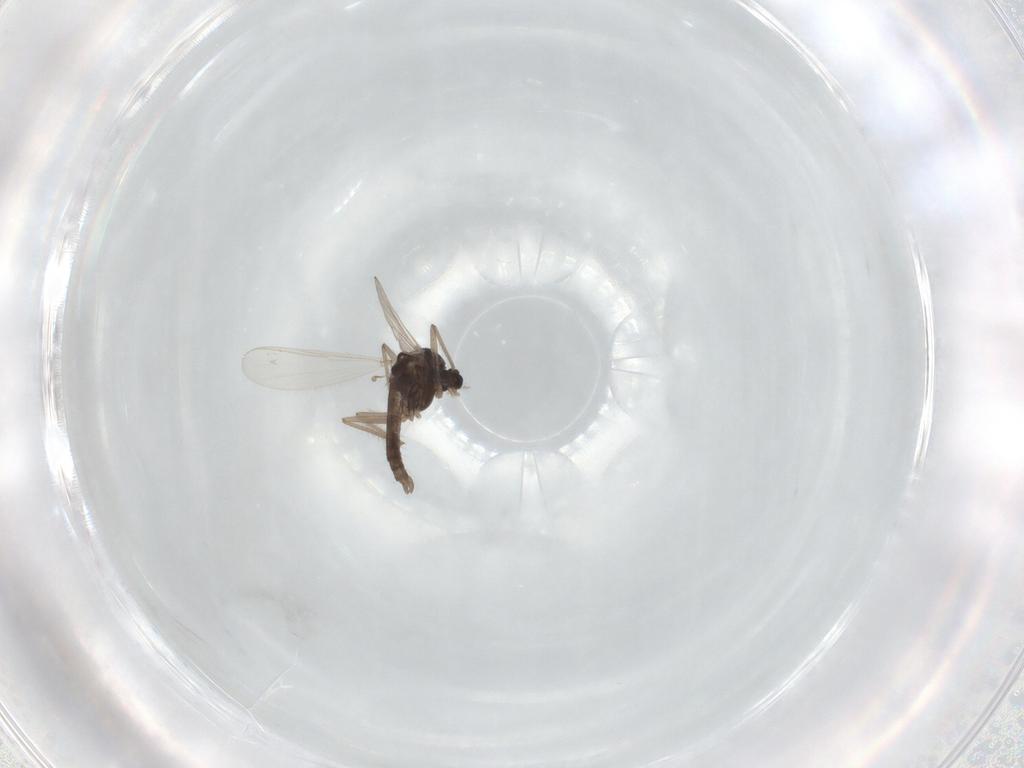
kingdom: Animalia
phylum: Arthropoda
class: Insecta
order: Diptera
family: Chironomidae
